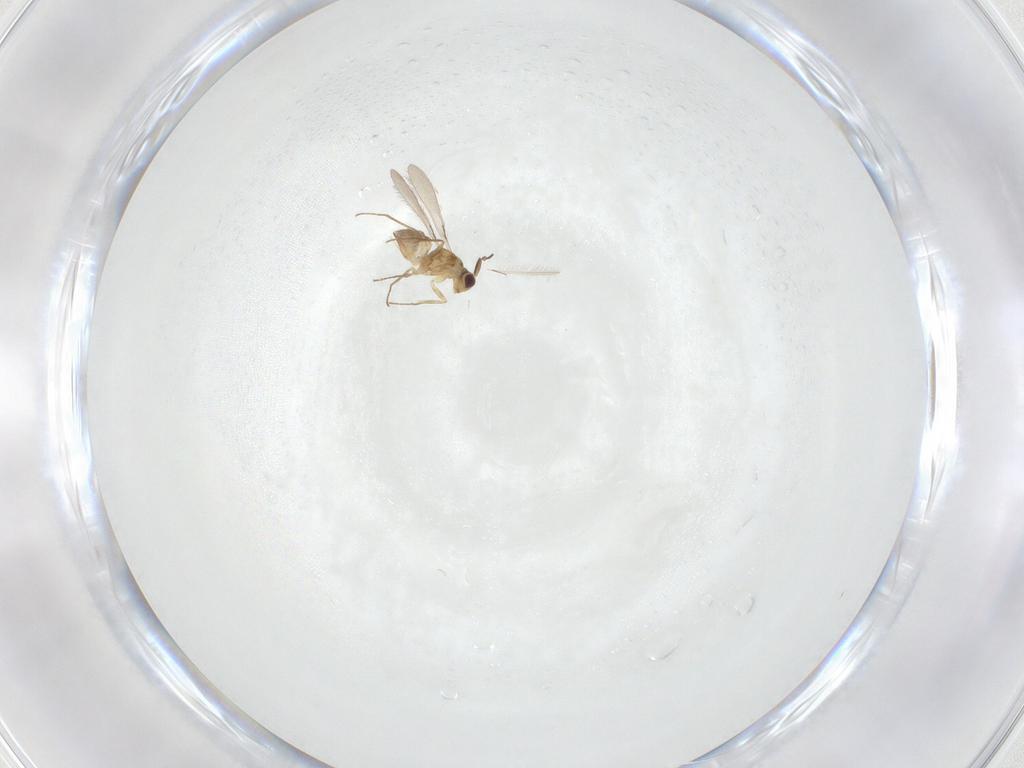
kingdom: Animalia
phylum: Arthropoda
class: Insecta
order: Hymenoptera
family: Mymaridae
